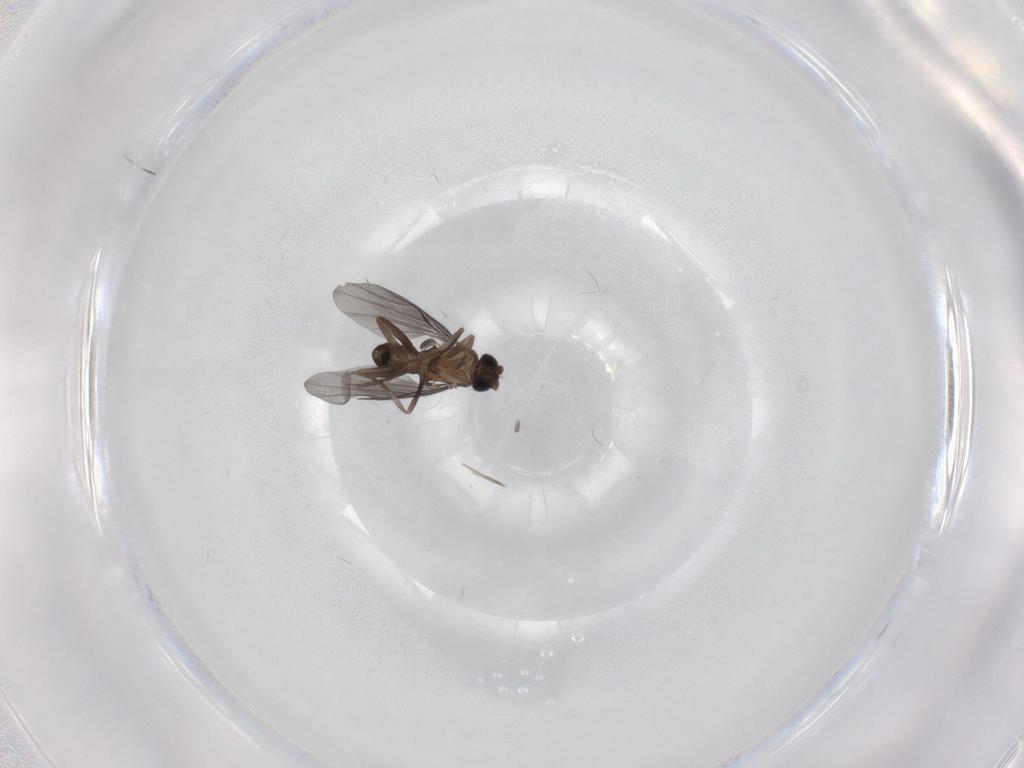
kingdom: Animalia
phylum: Arthropoda
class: Insecta
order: Diptera
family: Phoridae
